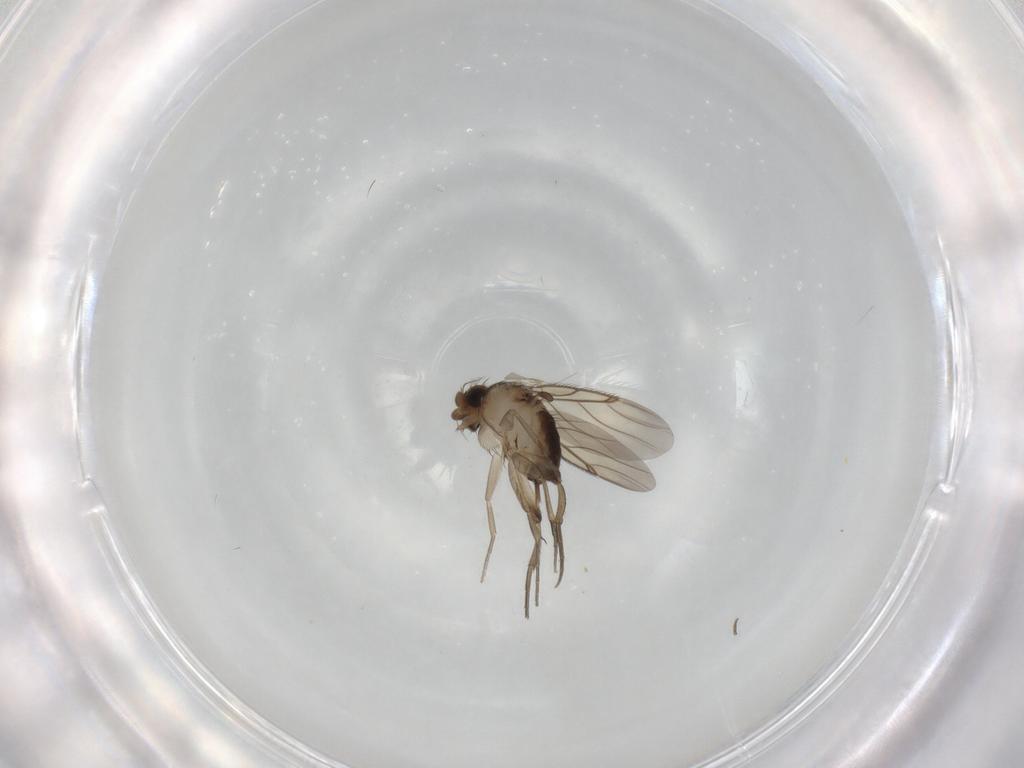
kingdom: Animalia
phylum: Arthropoda
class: Insecta
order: Diptera
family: Phoridae
